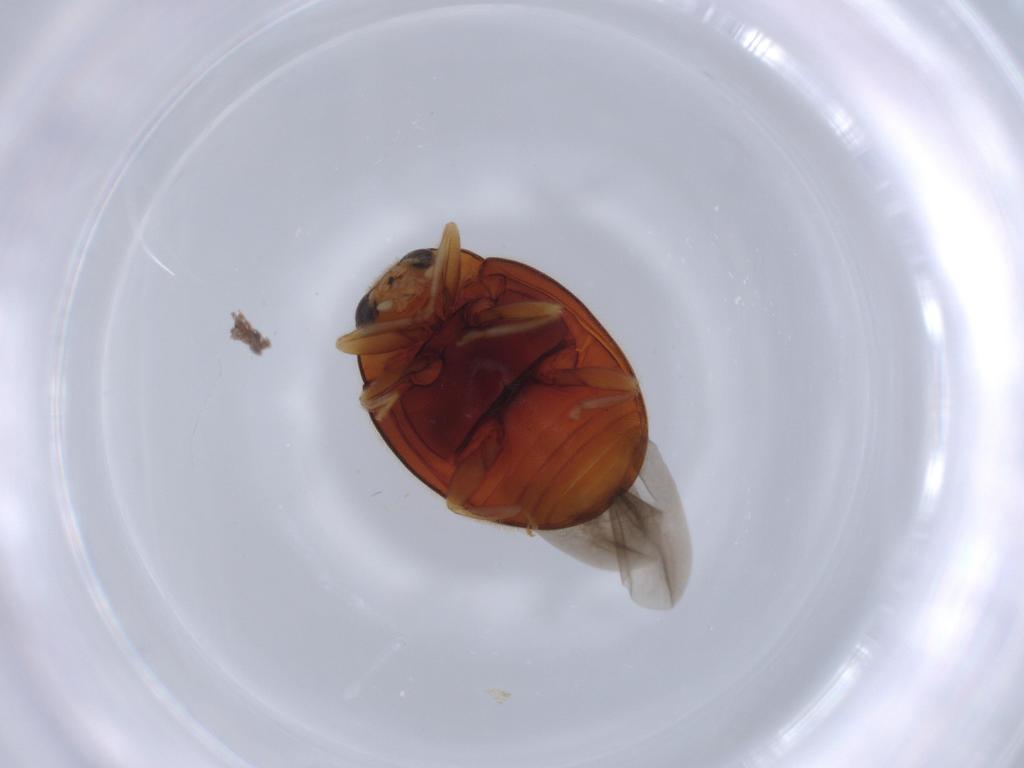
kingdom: Animalia
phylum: Arthropoda
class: Insecta
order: Coleoptera
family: Coccinellidae
